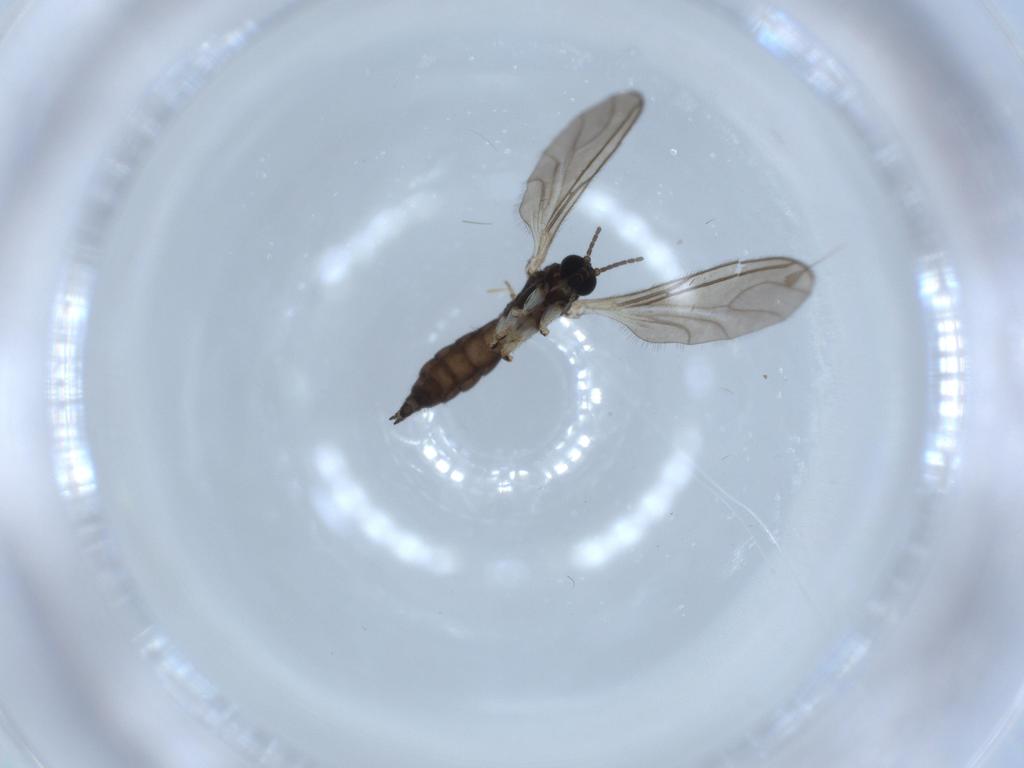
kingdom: Animalia
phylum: Arthropoda
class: Insecta
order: Diptera
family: Sciaridae
